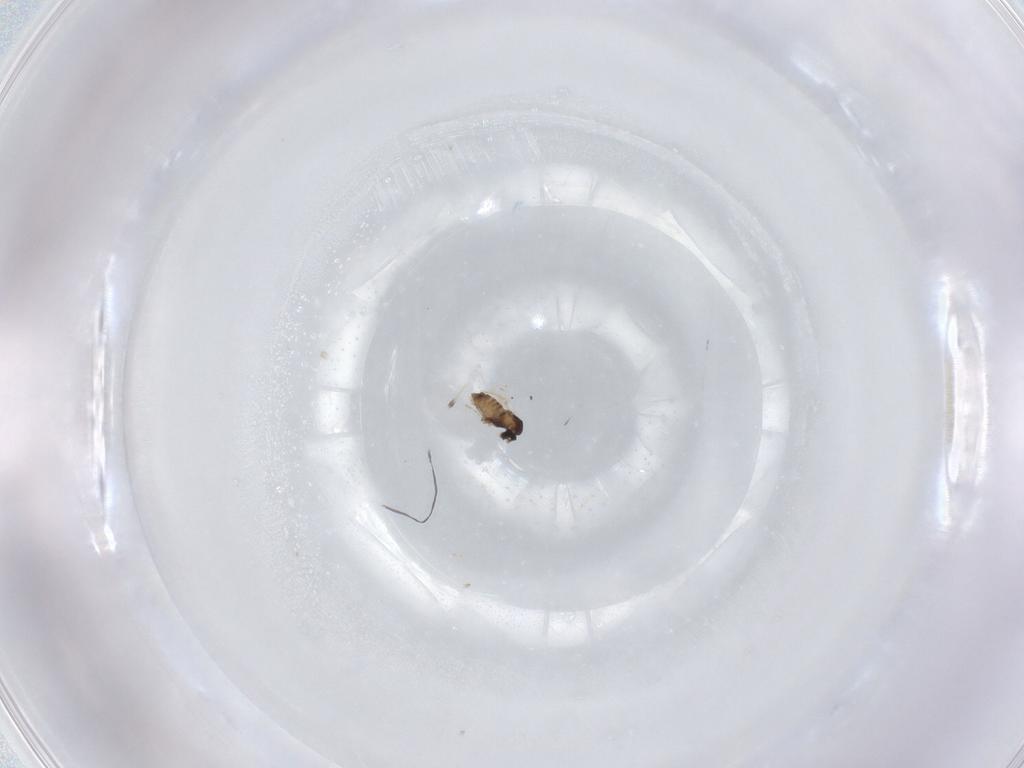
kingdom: Animalia
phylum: Arthropoda
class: Insecta
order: Diptera
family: Cecidomyiidae
